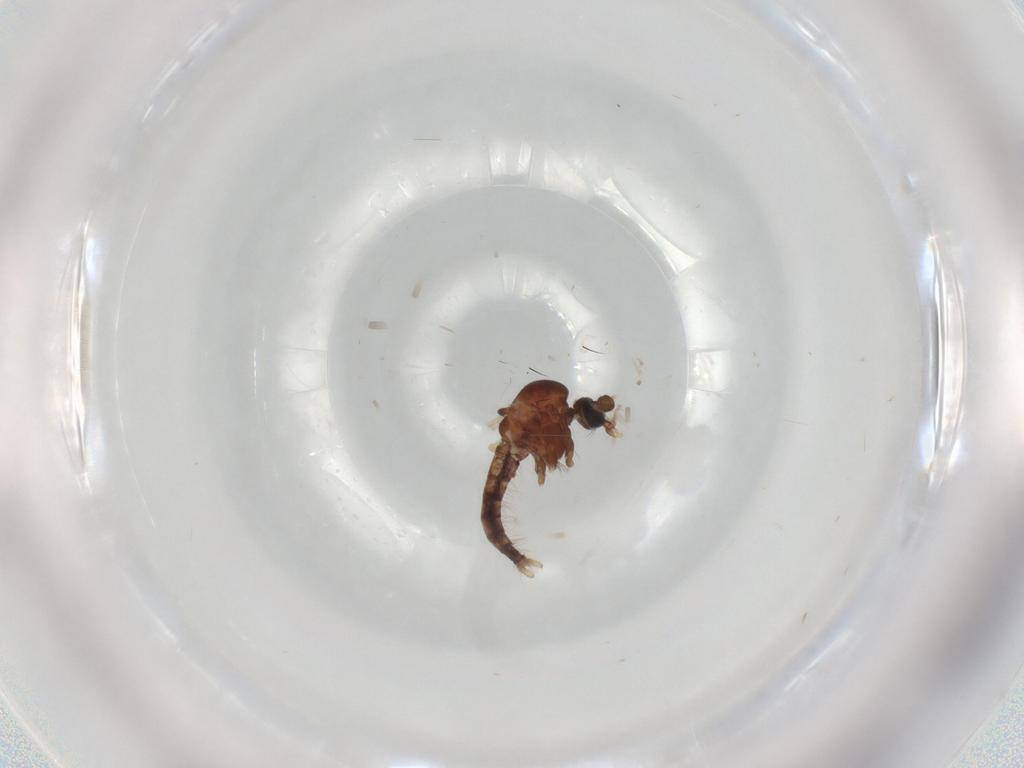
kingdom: Animalia
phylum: Arthropoda
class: Insecta
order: Diptera
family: Corethrellidae
